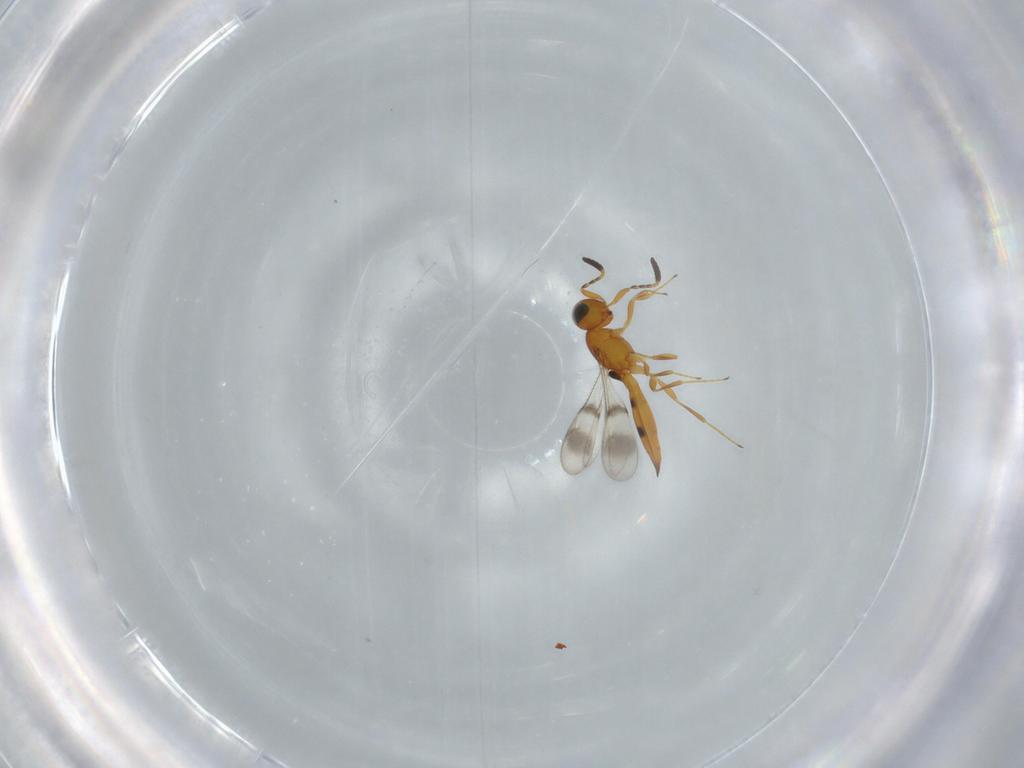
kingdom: Animalia
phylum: Arthropoda
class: Insecta
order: Hymenoptera
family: Scelionidae
